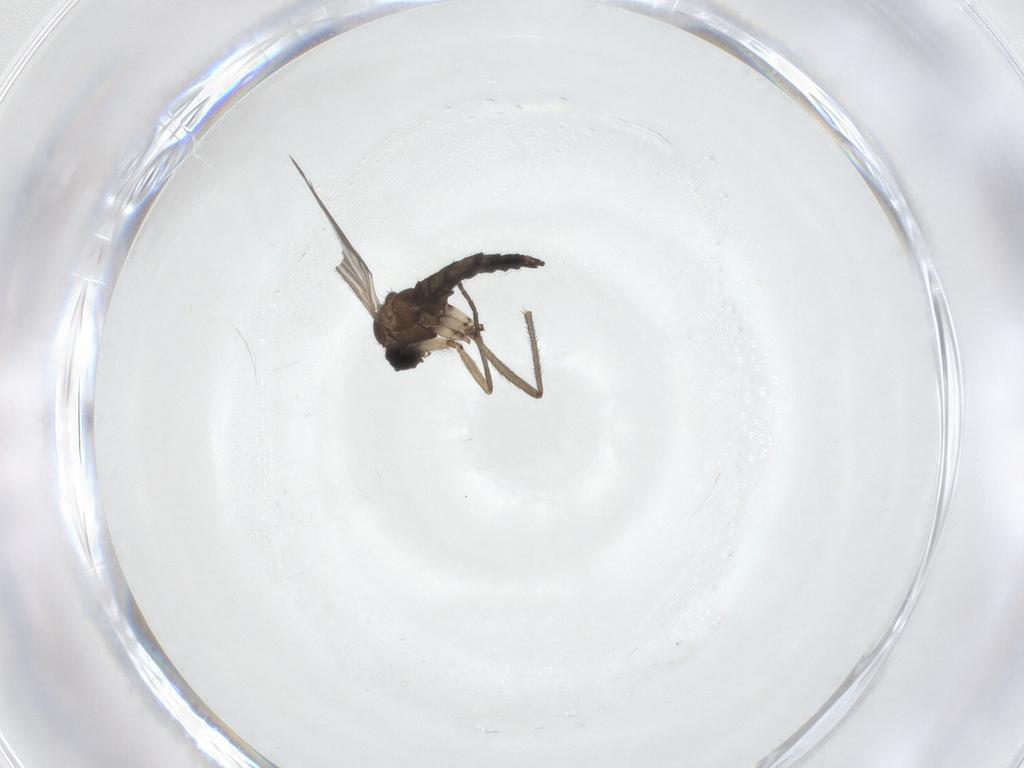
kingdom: Animalia
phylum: Arthropoda
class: Insecta
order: Diptera
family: Sciaridae
